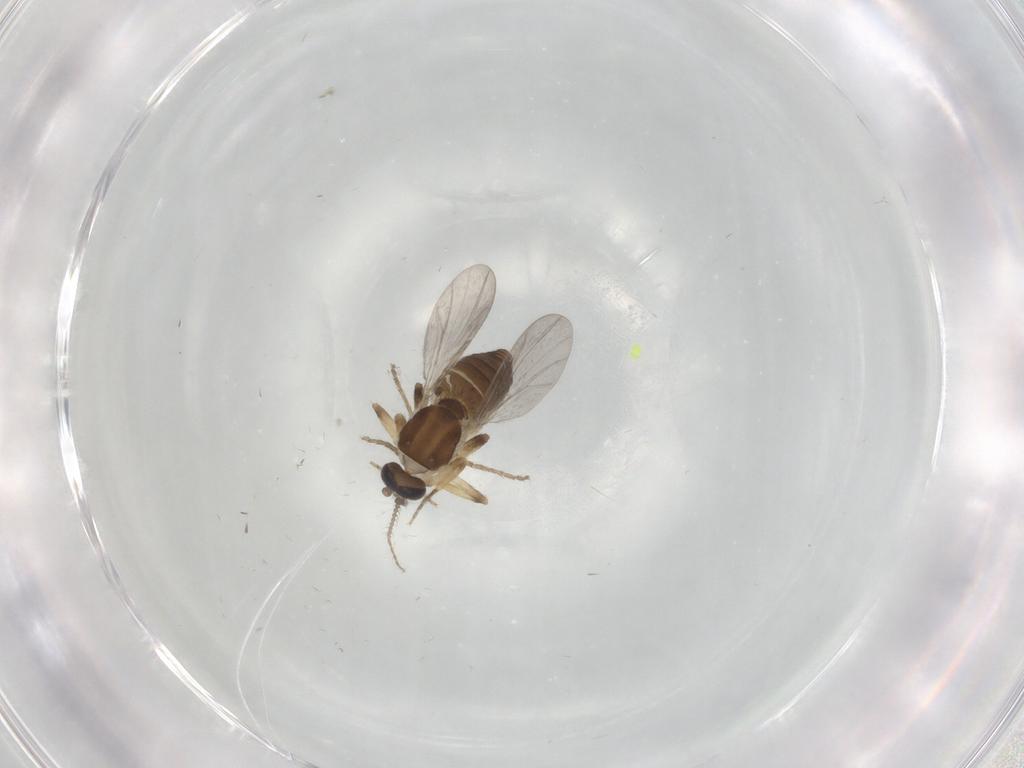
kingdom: Animalia
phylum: Arthropoda
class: Insecta
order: Diptera
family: Ceratopogonidae
